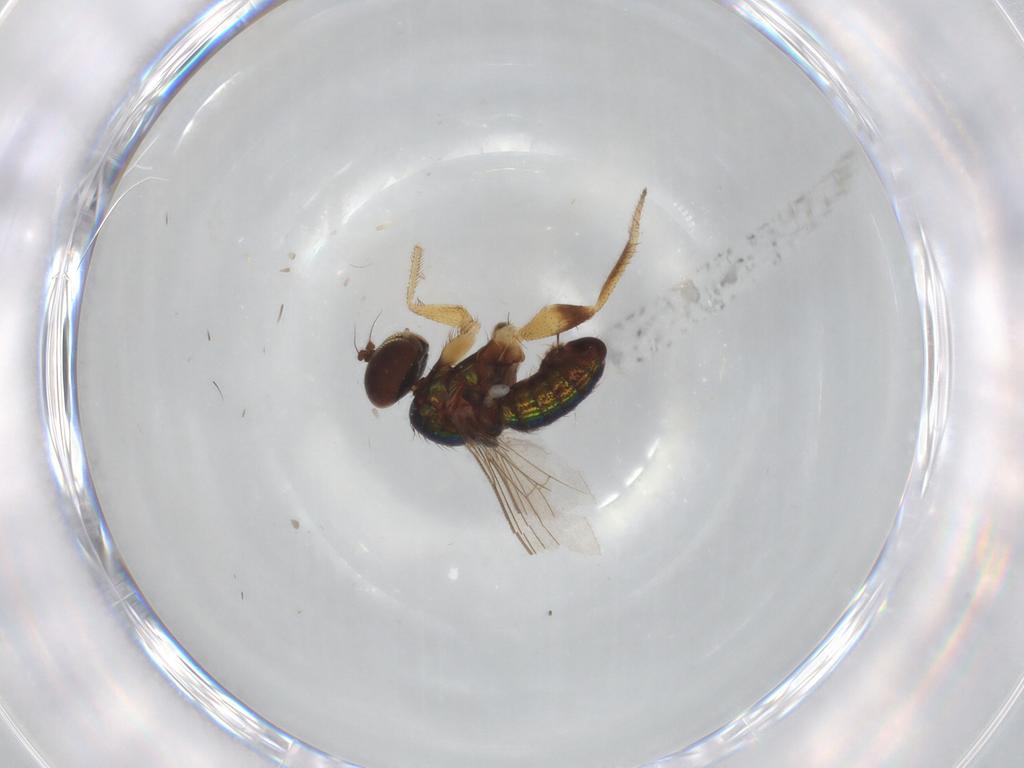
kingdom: Animalia
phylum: Arthropoda
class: Insecta
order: Diptera
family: Phoridae
